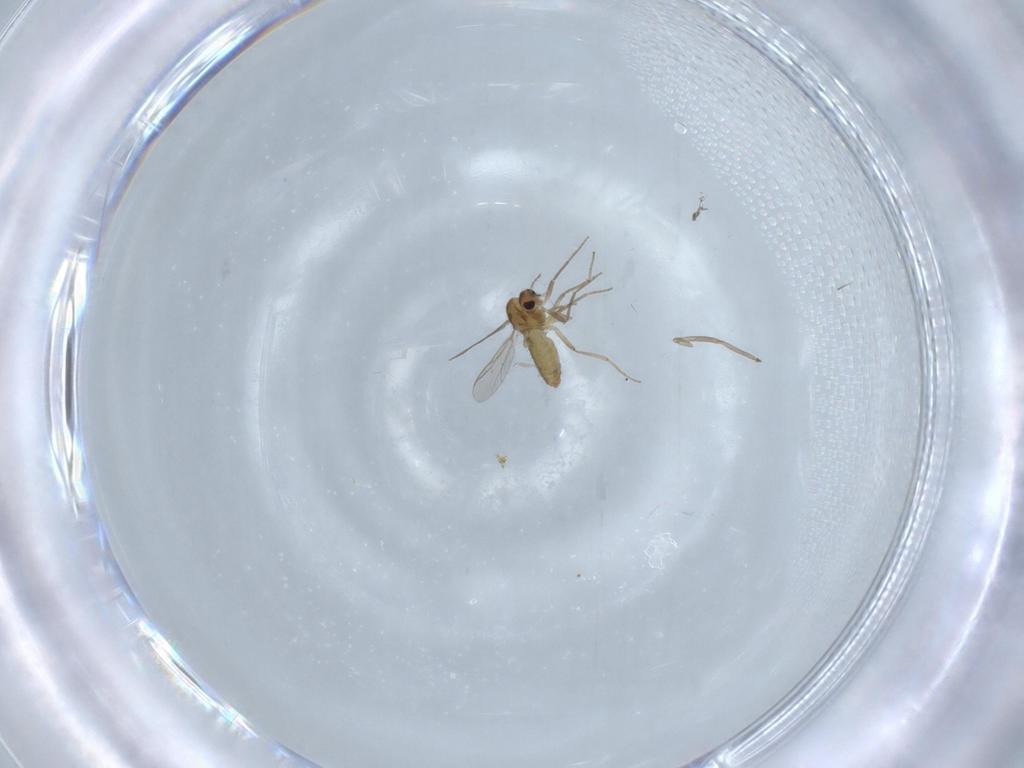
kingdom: Animalia
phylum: Arthropoda
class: Insecta
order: Diptera
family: Chironomidae
